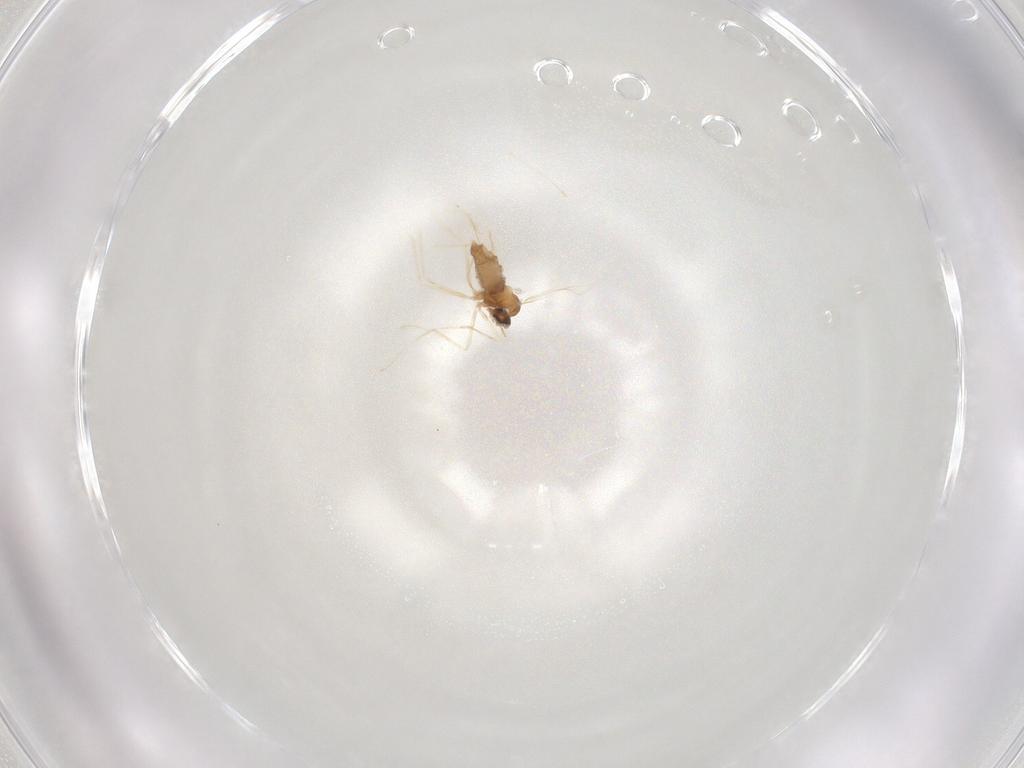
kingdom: Animalia
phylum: Arthropoda
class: Insecta
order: Diptera
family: Cecidomyiidae
